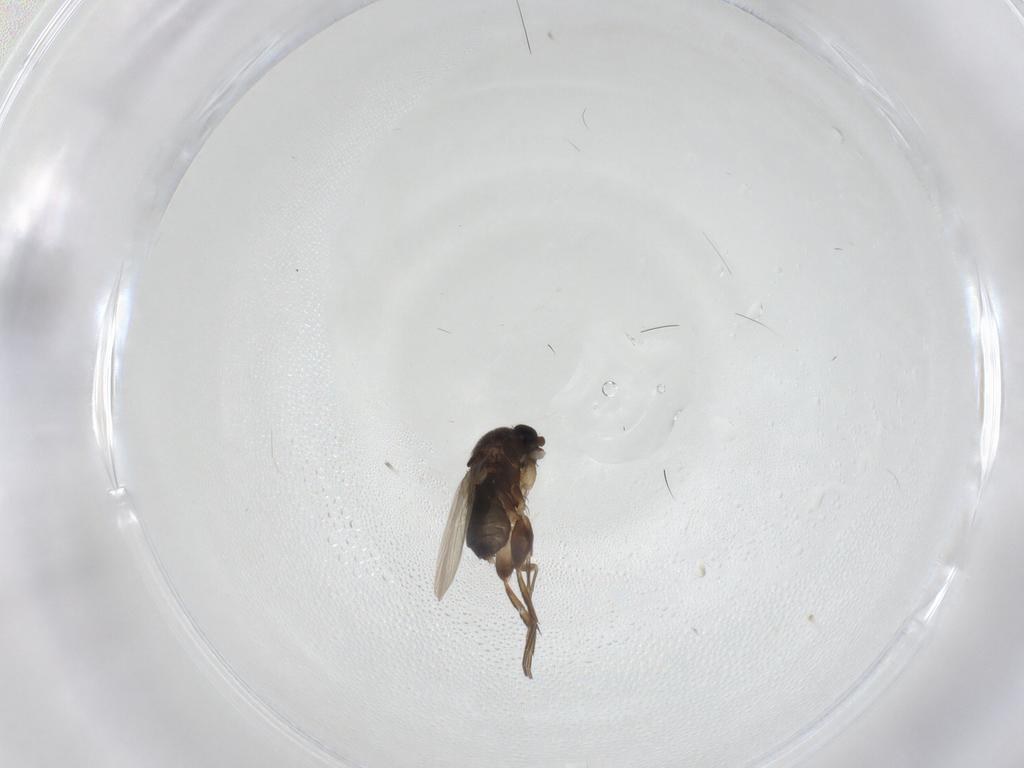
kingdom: Animalia
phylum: Arthropoda
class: Insecta
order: Diptera
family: Phoridae
